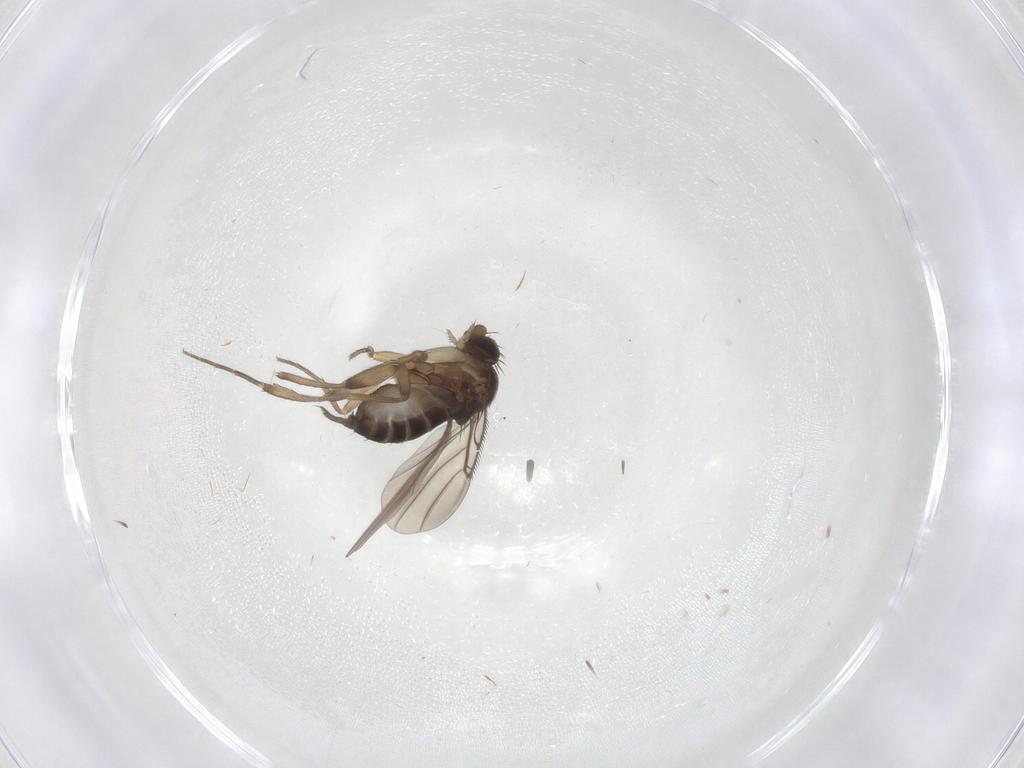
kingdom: Animalia
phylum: Arthropoda
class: Insecta
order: Diptera
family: Phoridae
